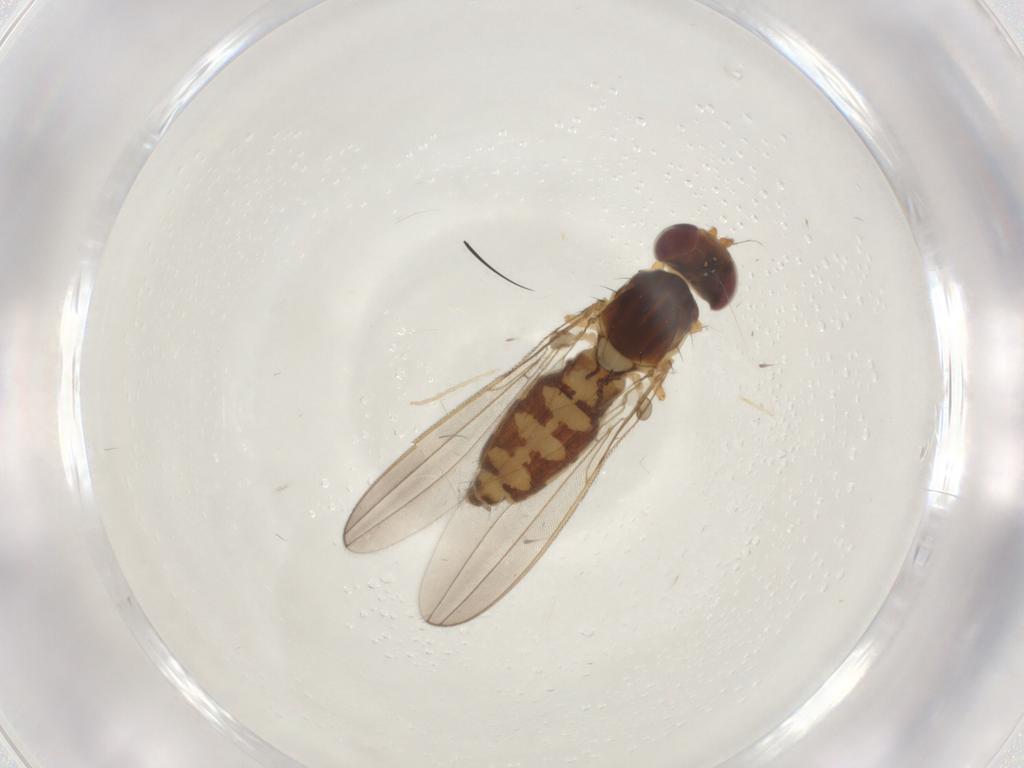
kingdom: Animalia
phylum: Arthropoda
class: Insecta
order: Diptera
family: Asteiidae
